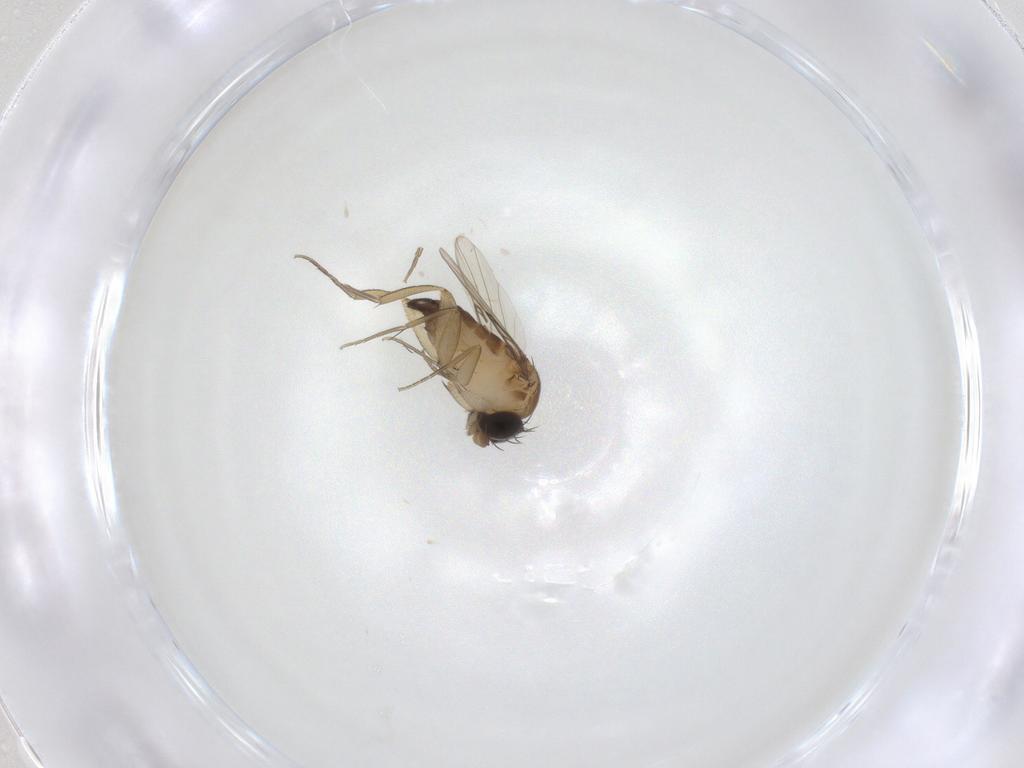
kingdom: Animalia
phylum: Arthropoda
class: Insecta
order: Diptera
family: Phoridae
